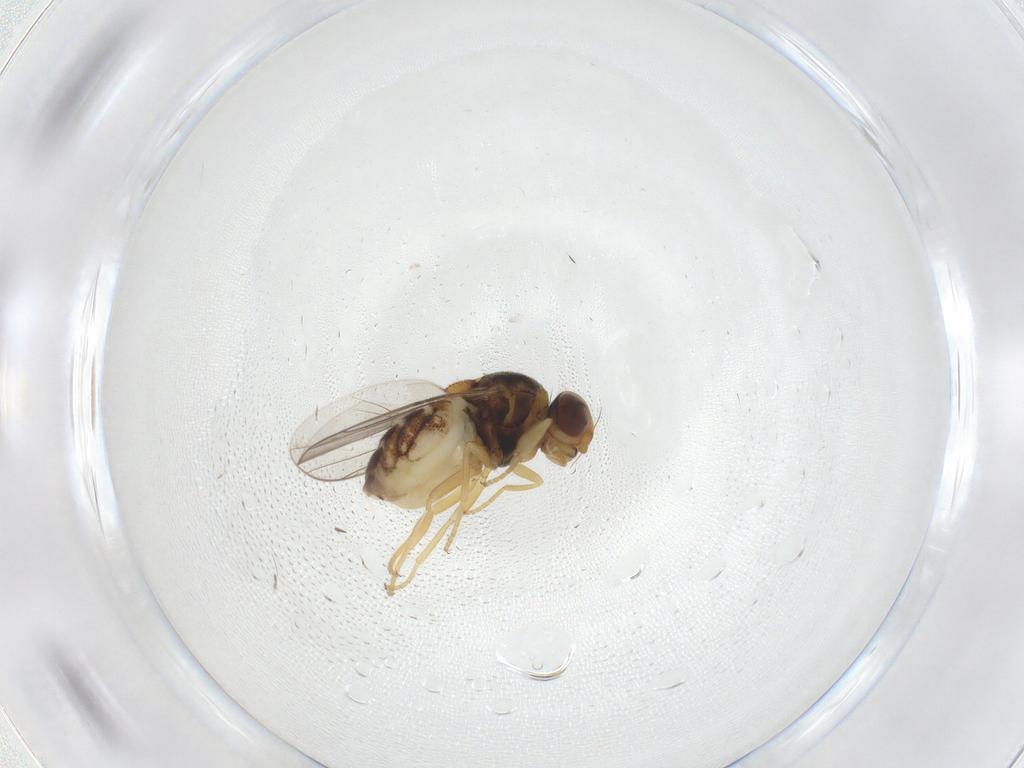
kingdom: Animalia
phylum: Arthropoda
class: Insecta
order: Diptera
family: Chloropidae
